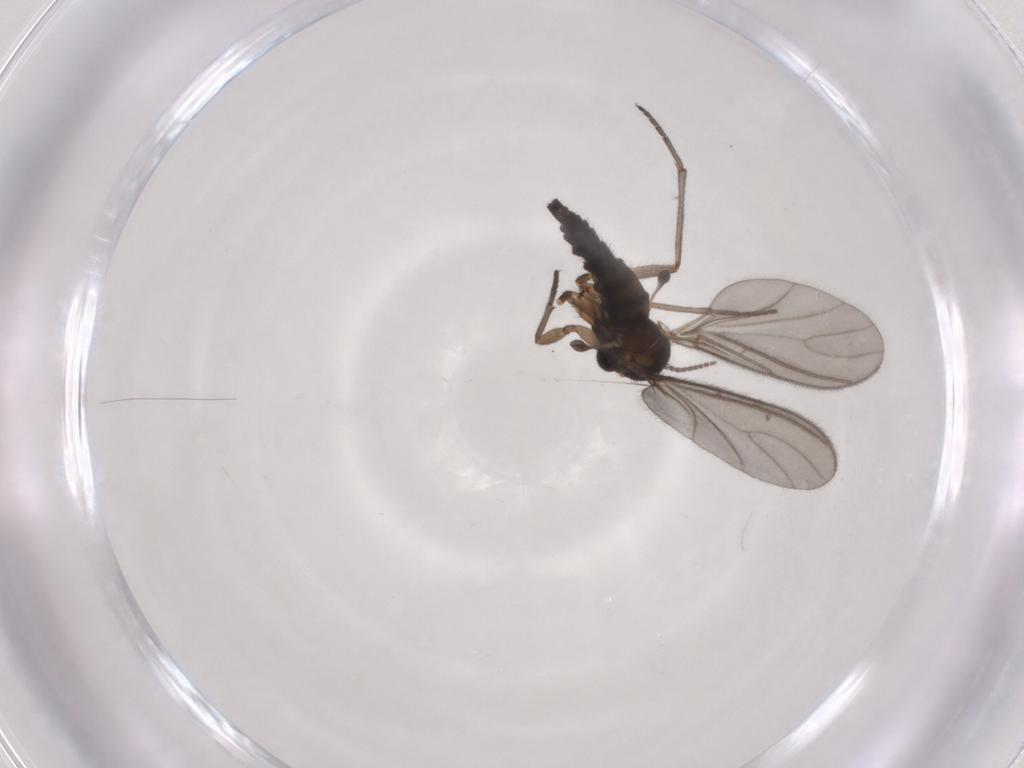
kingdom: Animalia
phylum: Arthropoda
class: Insecta
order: Diptera
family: Sciaridae
